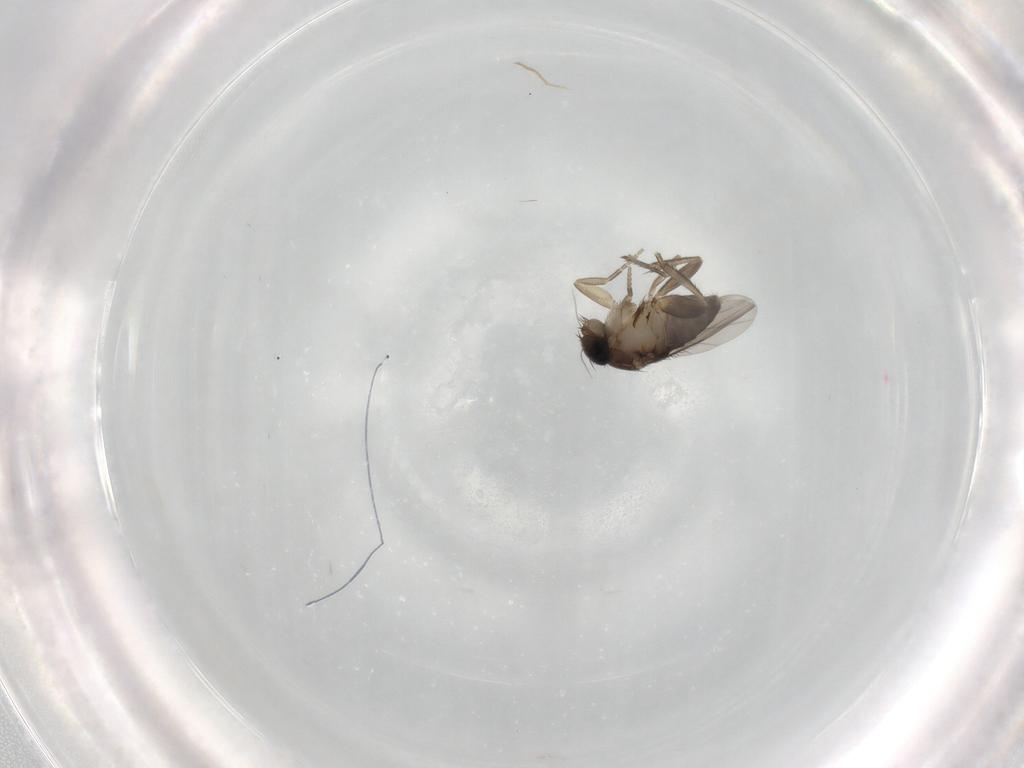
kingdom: Animalia
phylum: Arthropoda
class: Insecta
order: Diptera
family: Phoridae
